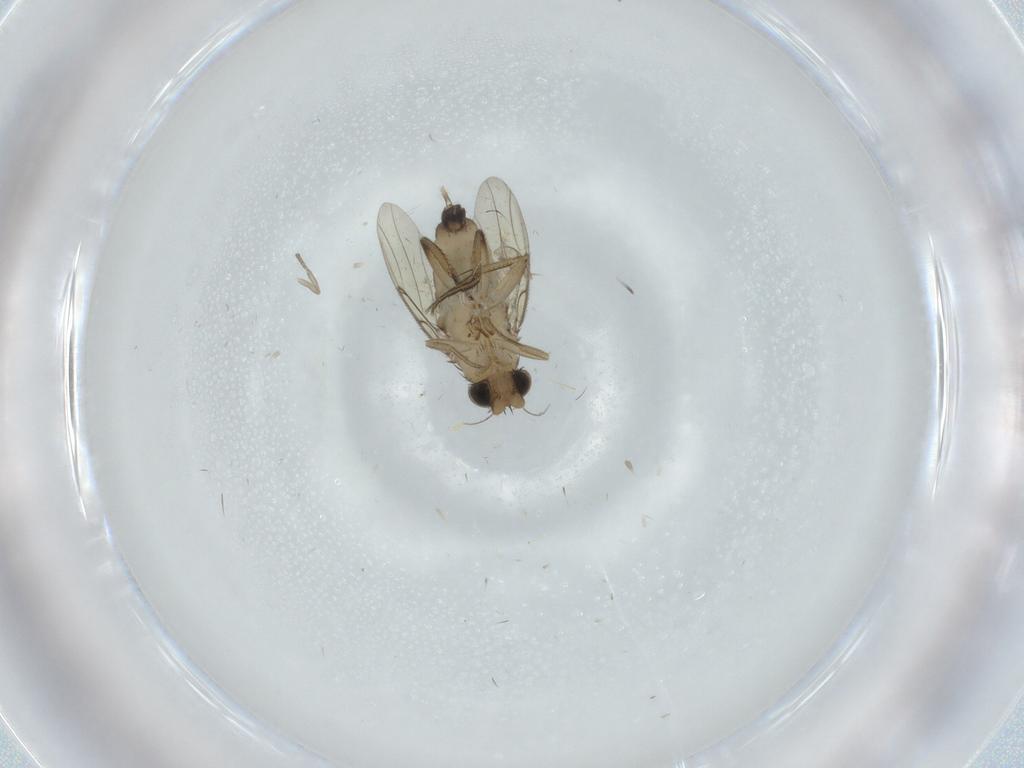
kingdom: Animalia
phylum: Arthropoda
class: Insecta
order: Diptera
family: Phoridae
